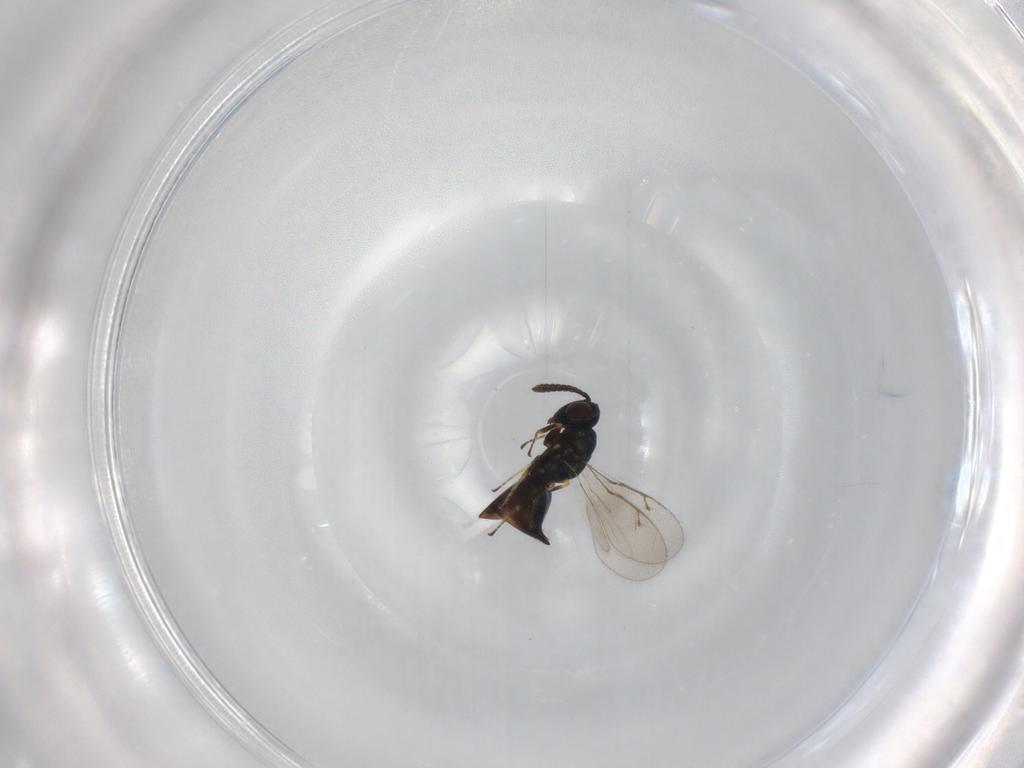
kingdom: Animalia
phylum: Arthropoda
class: Insecta
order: Hymenoptera
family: Pteromalidae
